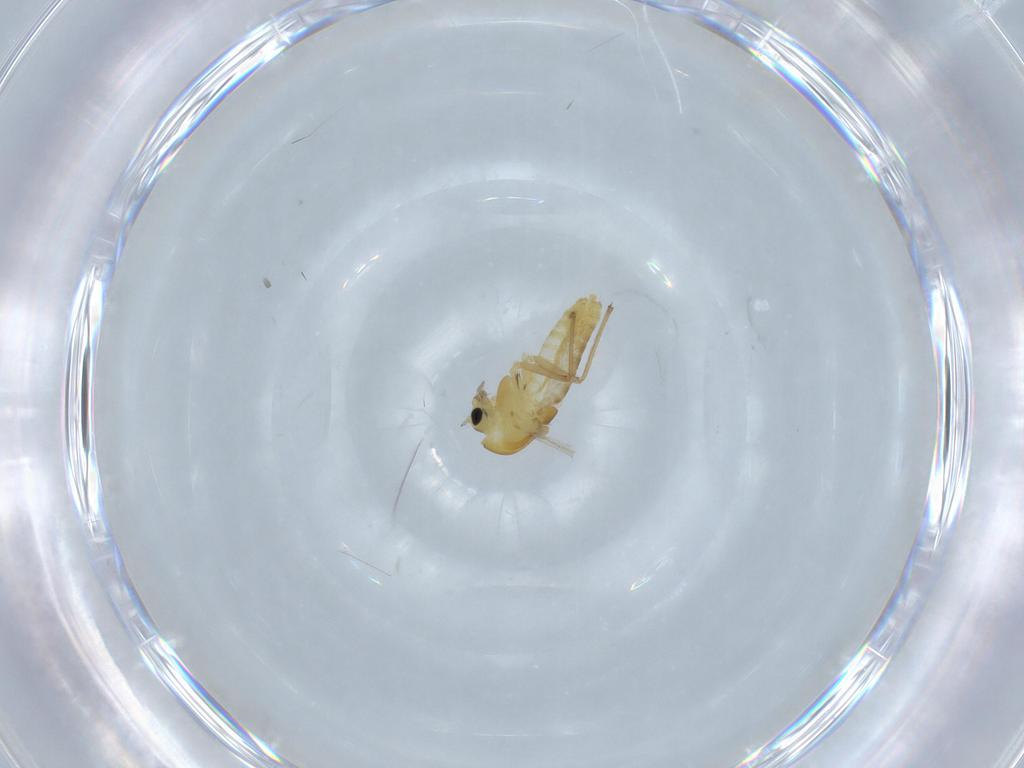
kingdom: Animalia
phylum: Arthropoda
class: Insecta
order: Diptera
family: Chironomidae
